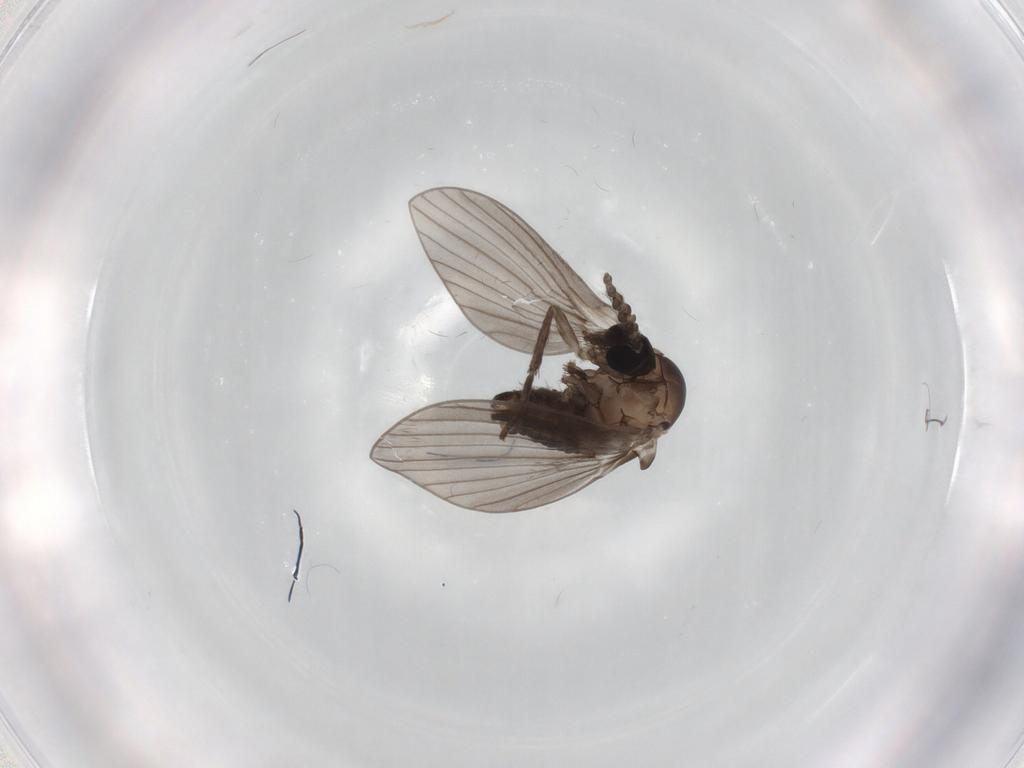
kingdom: Animalia
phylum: Arthropoda
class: Insecta
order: Diptera
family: Psychodidae
